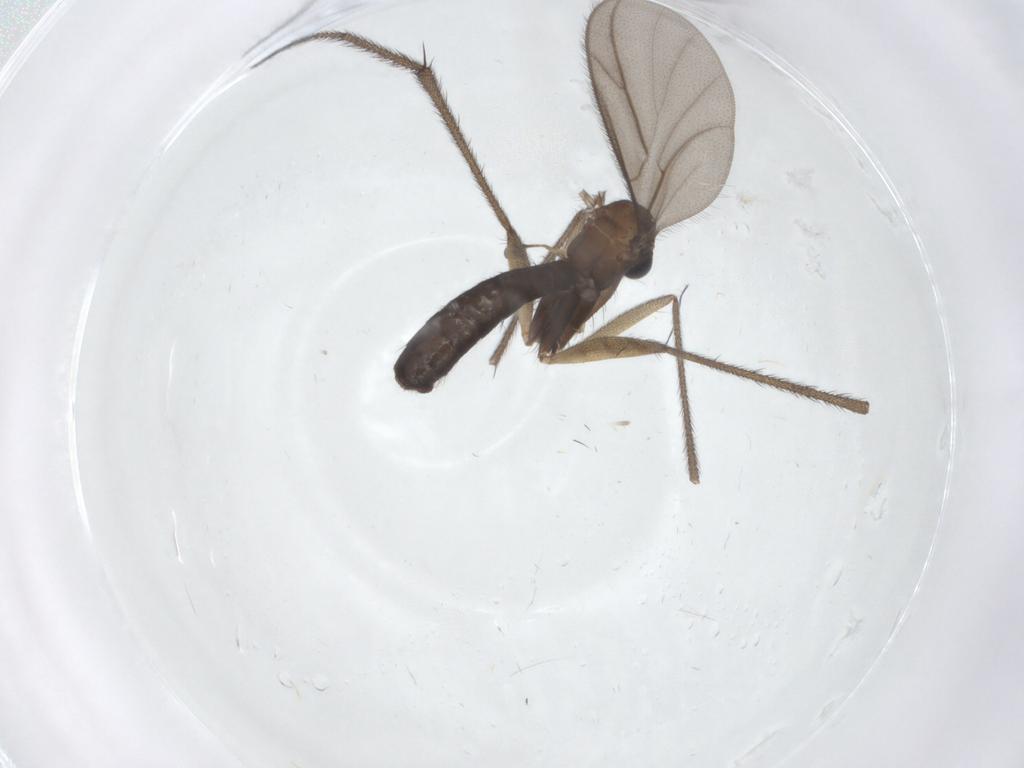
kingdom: Animalia
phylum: Arthropoda
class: Insecta
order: Diptera
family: Ditomyiidae
